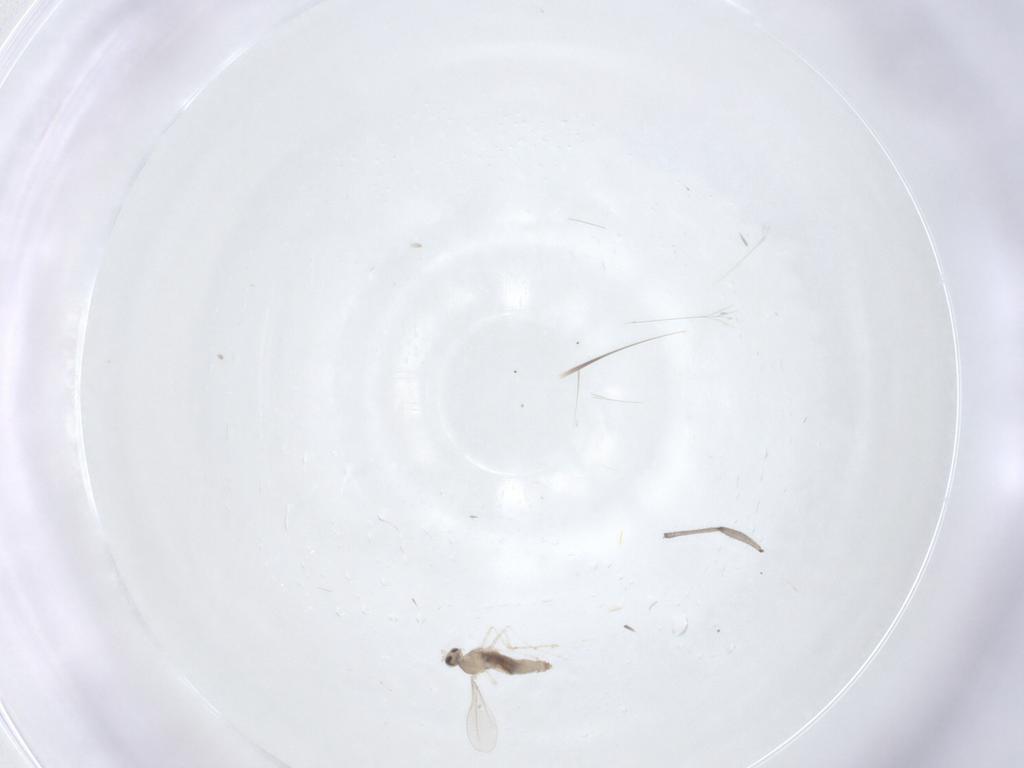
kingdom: Animalia
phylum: Arthropoda
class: Insecta
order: Diptera
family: Sciaridae
